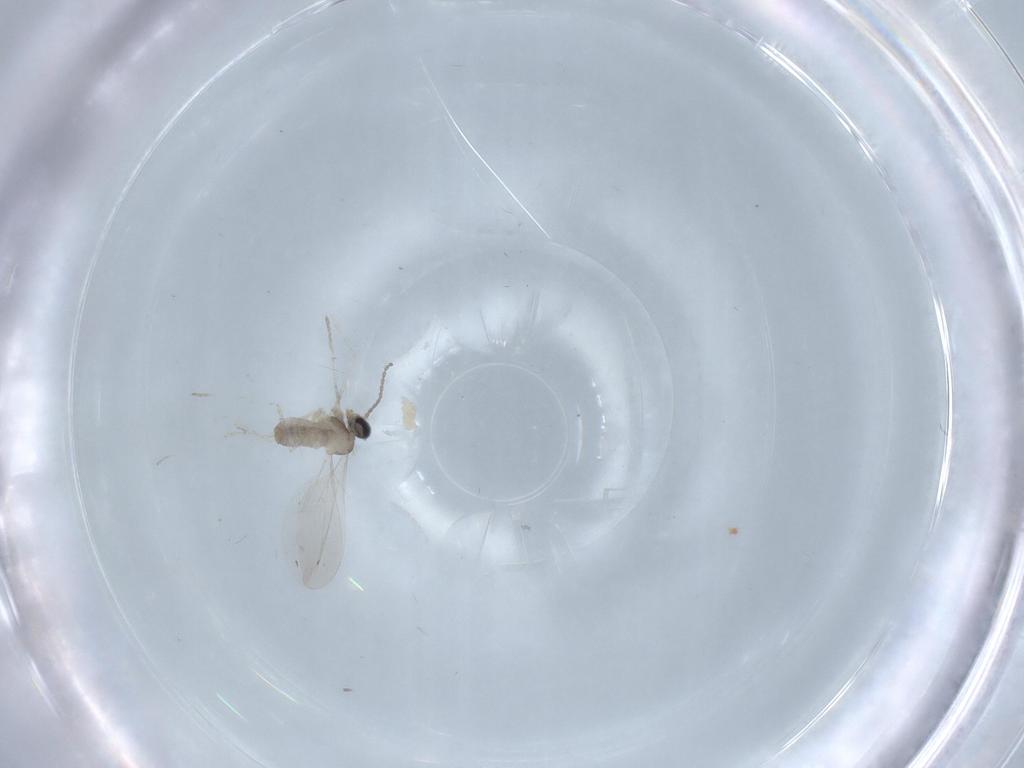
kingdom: Animalia
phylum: Arthropoda
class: Insecta
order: Diptera
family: Cecidomyiidae
